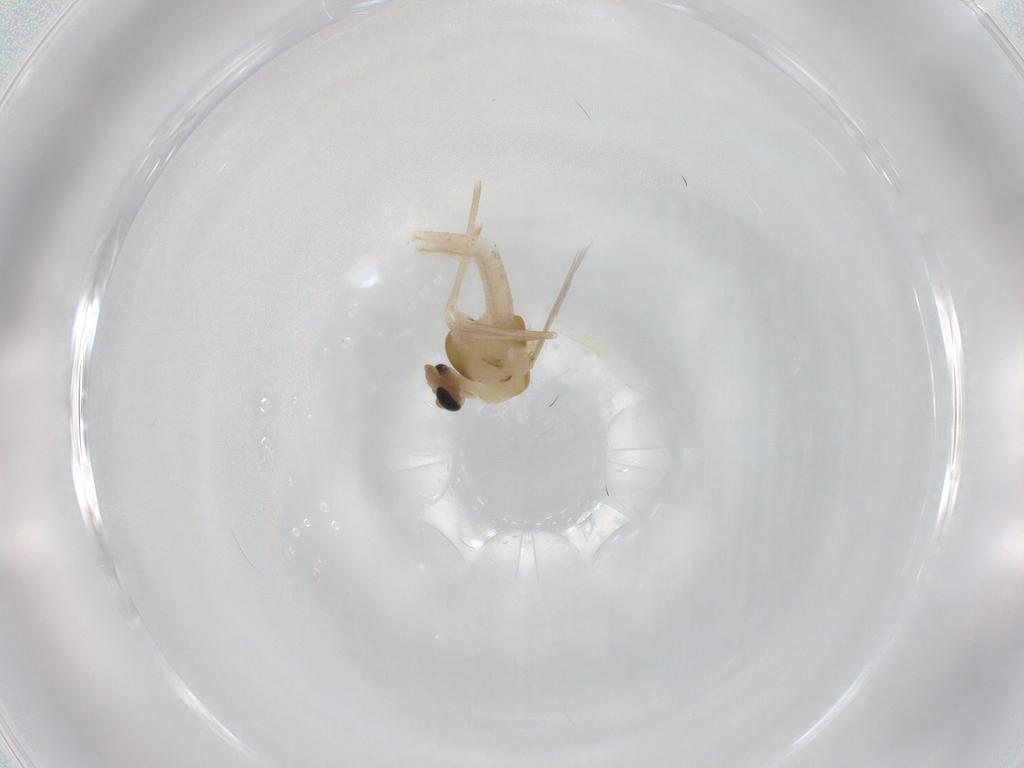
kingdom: Animalia
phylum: Arthropoda
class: Insecta
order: Diptera
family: Chironomidae
